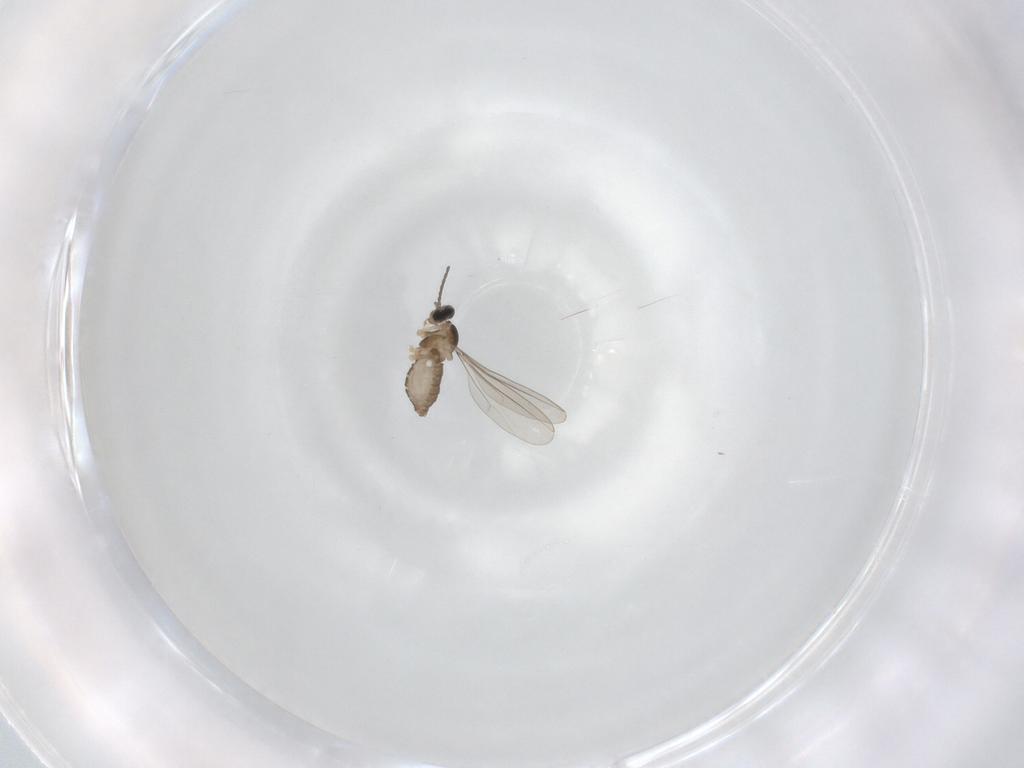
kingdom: Animalia
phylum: Arthropoda
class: Insecta
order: Diptera
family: Cecidomyiidae
